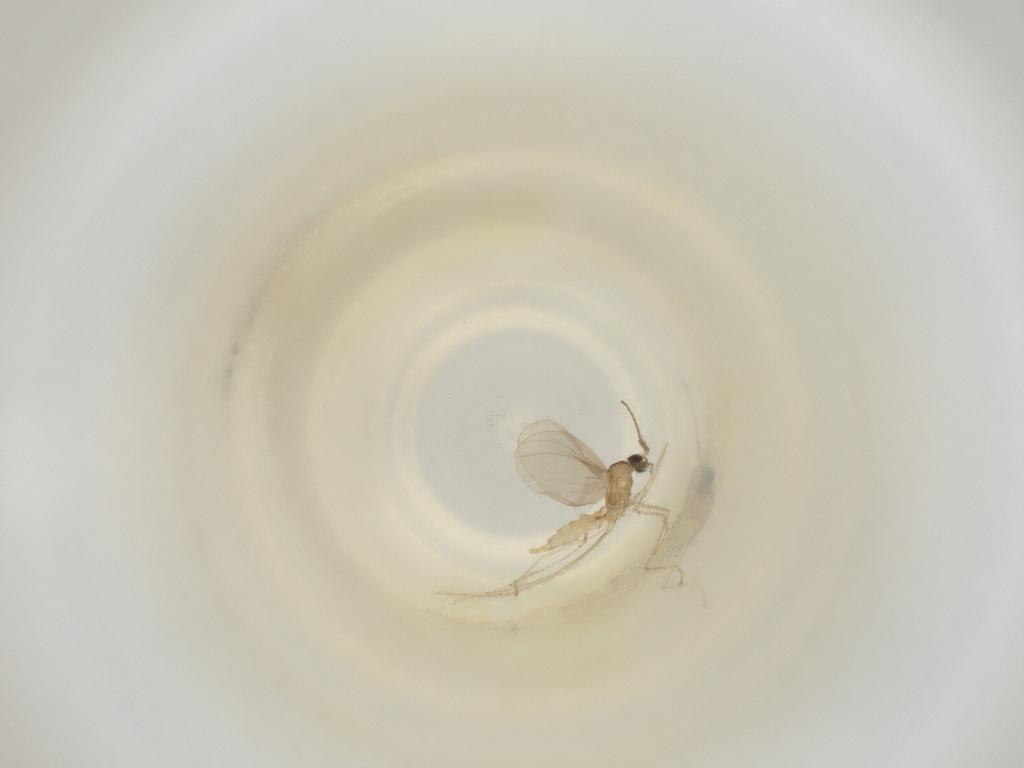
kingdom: Animalia
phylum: Arthropoda
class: Insecta
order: Diptera
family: Cecidomyiidae
